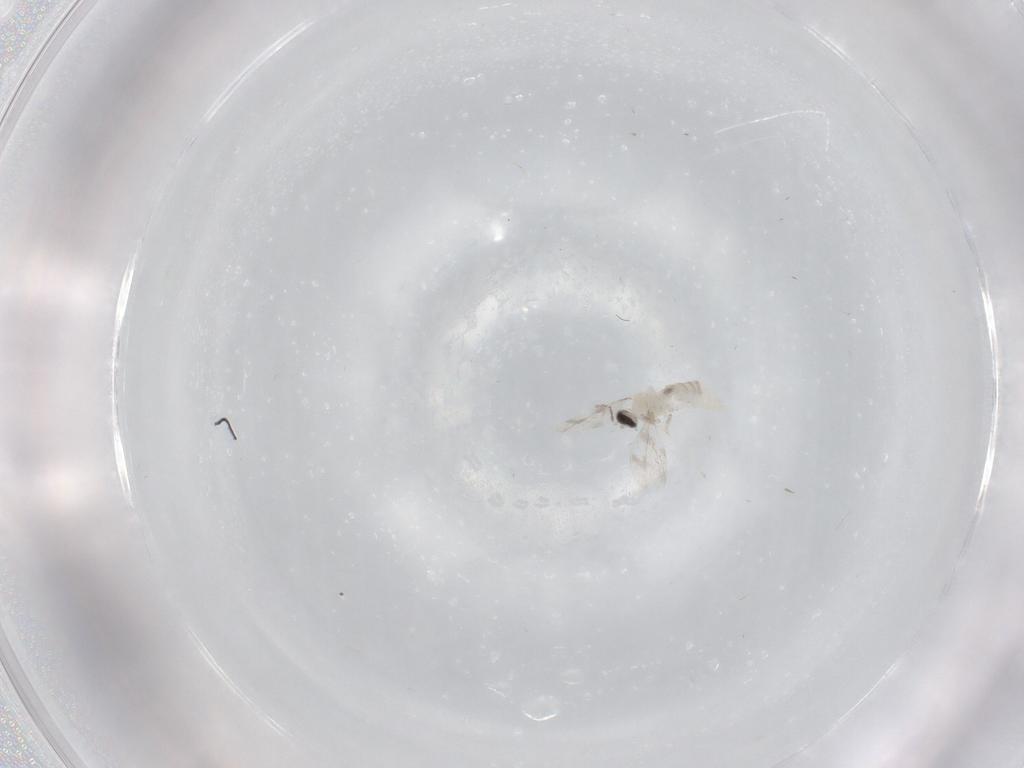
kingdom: Animalia
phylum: Arthropoda
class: Insecta
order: Diptera
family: Cecidomyiidae
